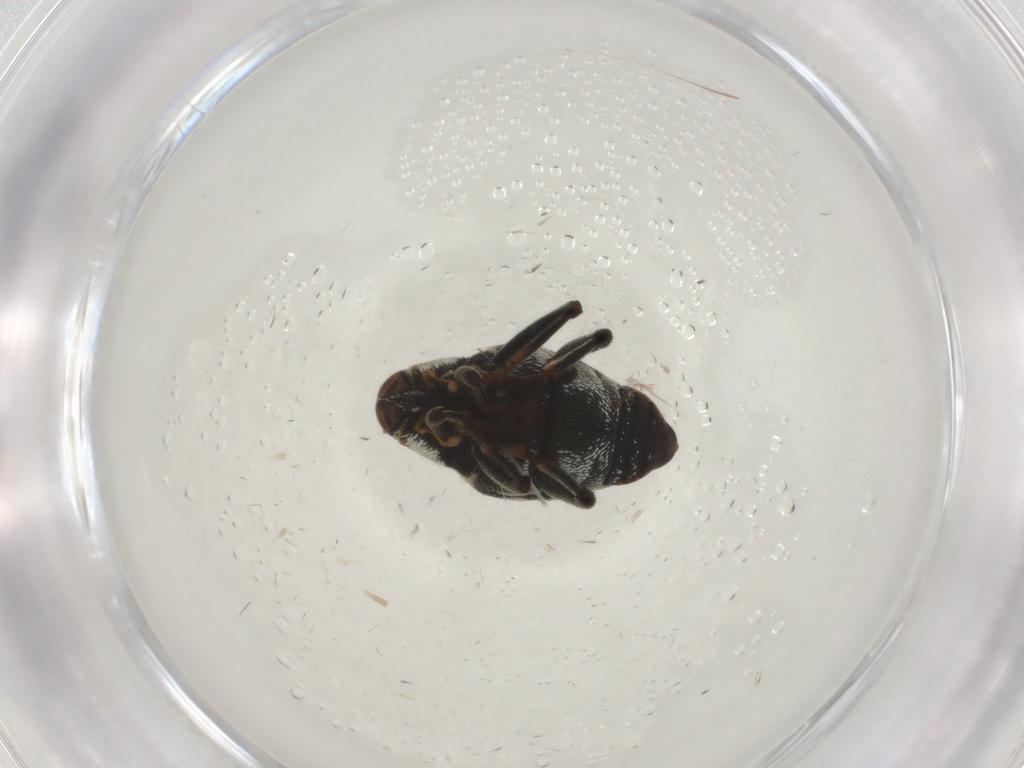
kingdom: Animalia
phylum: Arthropoda
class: Insecta
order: Coleoptera
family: Curculionidae
